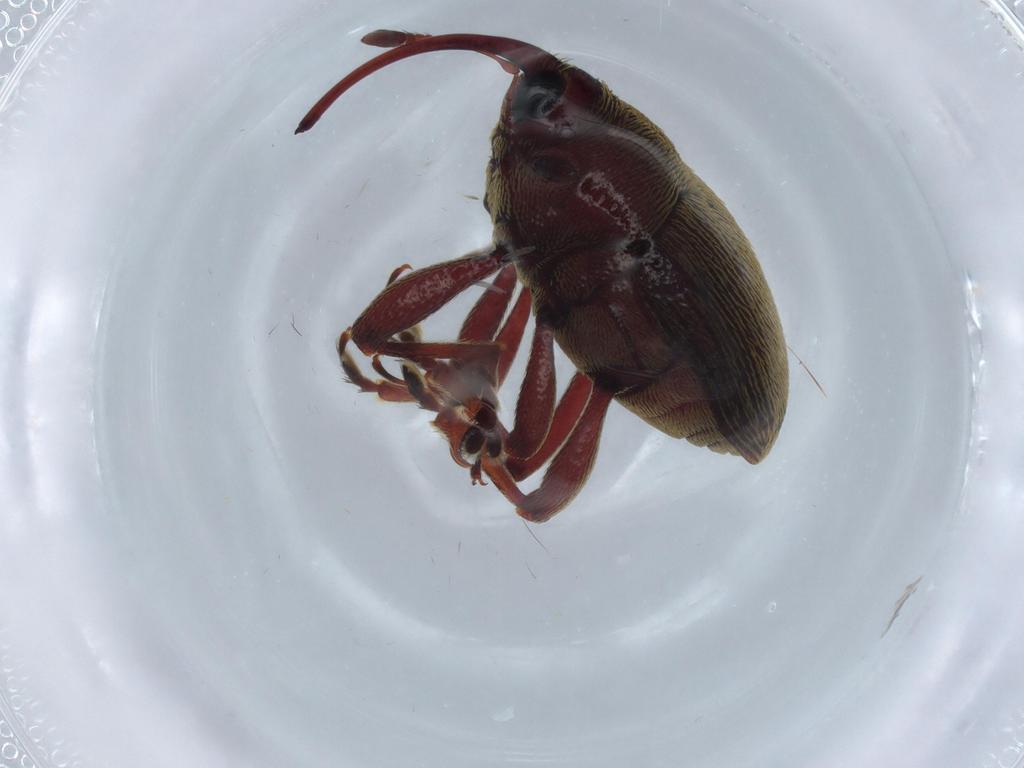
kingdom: Animalia
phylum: Arthropoda
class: Insecta
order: Coleoptera
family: Curculionidae
